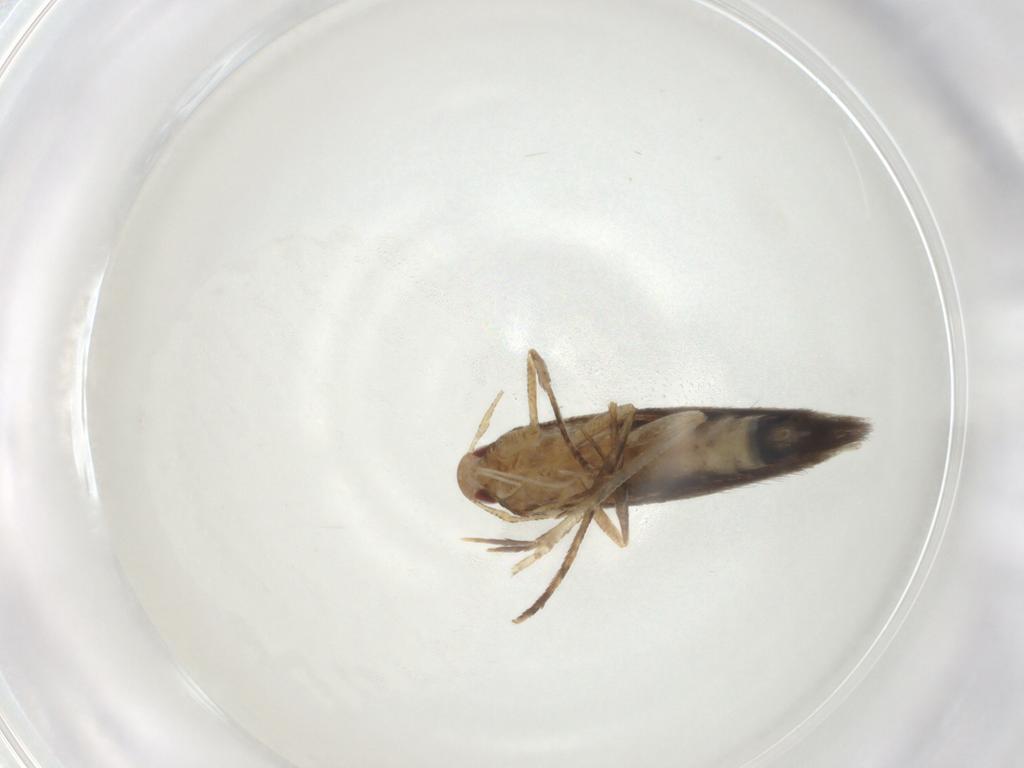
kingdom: Animalia
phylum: Arthropoda
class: Insecta
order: Lepidoptera
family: Cosmopterigidae
